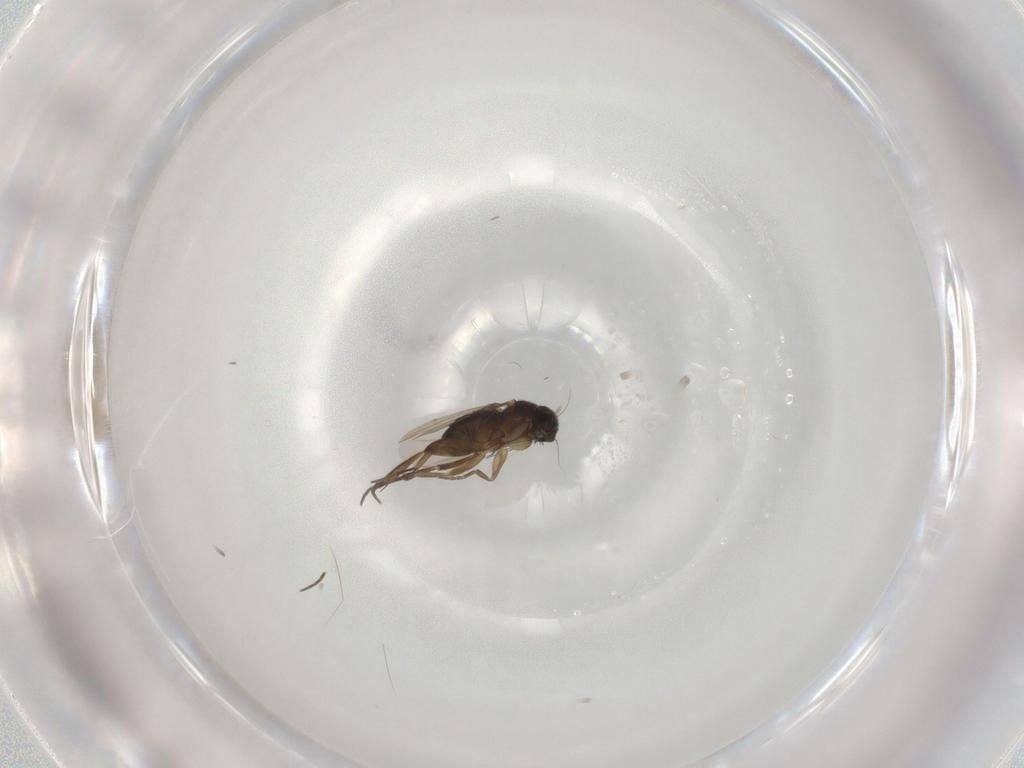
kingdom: Animalia
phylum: Arthropoda
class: Insecta
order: Diptera
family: Phoridae
